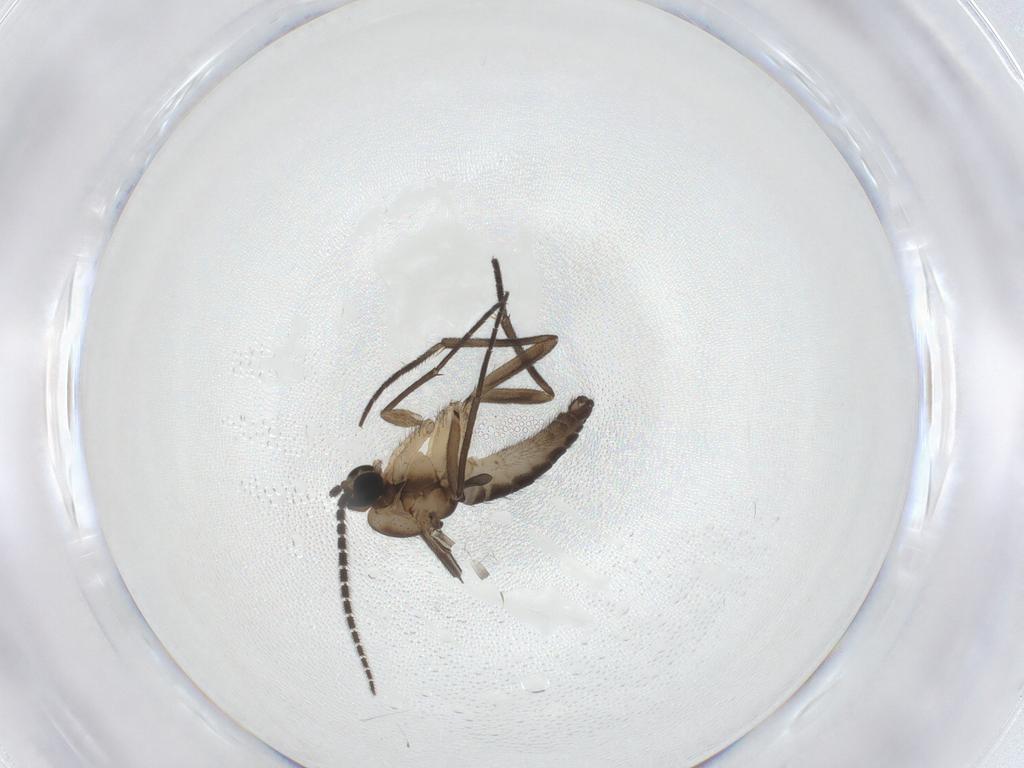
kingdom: Animalia
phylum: Arthropoda
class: Insecta
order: Diptera
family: Sciaridae
